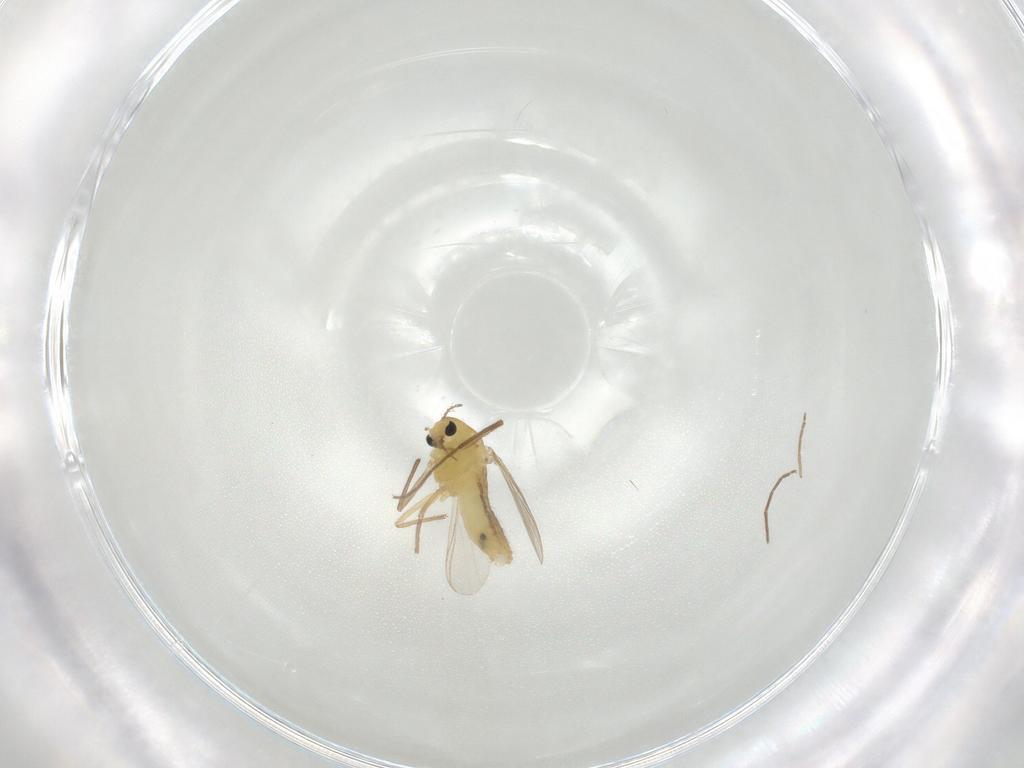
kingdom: Animalia
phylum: Arthropoda
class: Insecta
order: Diptera
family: Chironomidae
